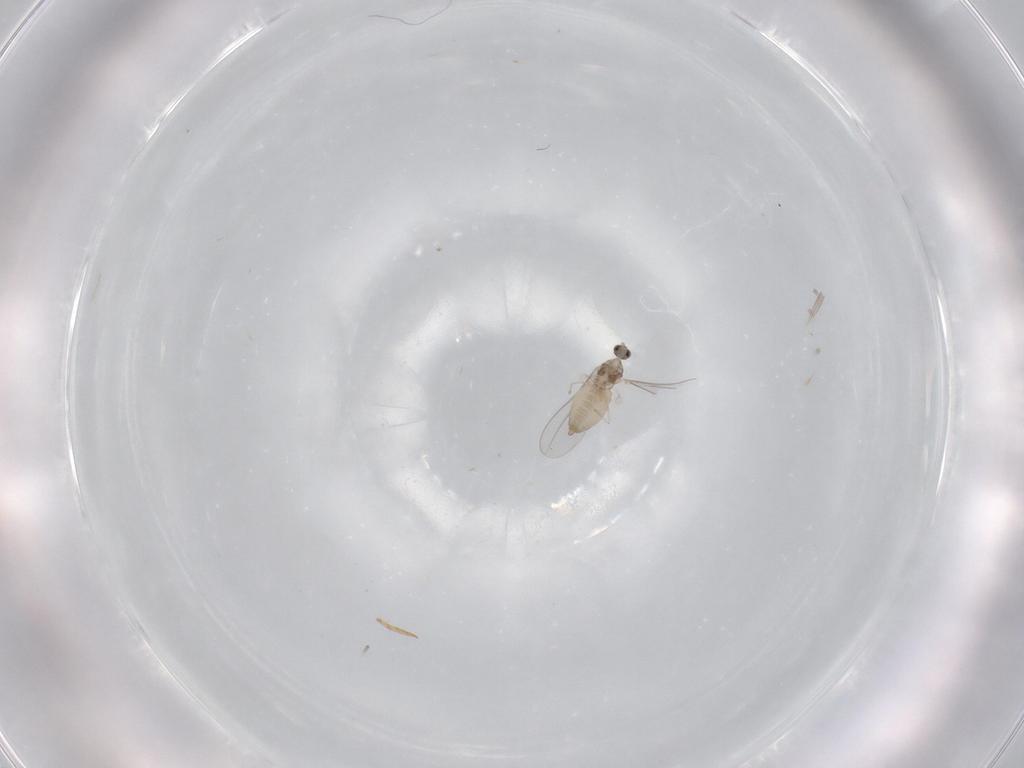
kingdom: Animalia
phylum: Arthropoda
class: Insecta
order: Diptera
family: Cecidomyiidae
